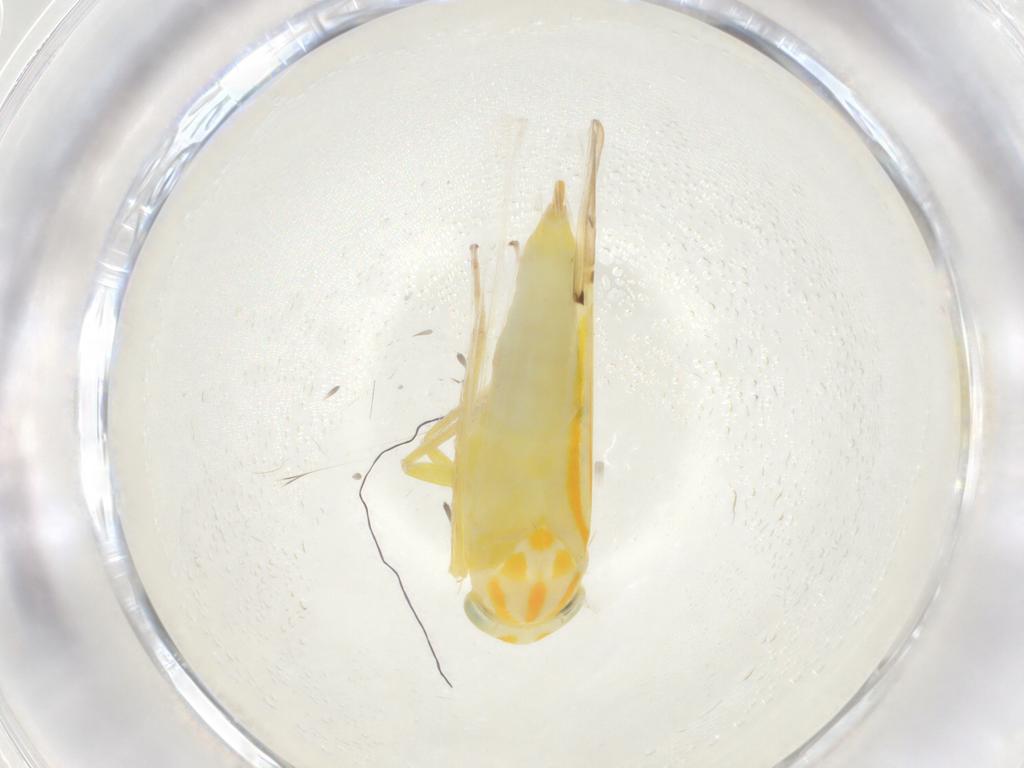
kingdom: Animalia
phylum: Arthropoda
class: Insecta
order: Hemiptera
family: Cicadellidae
